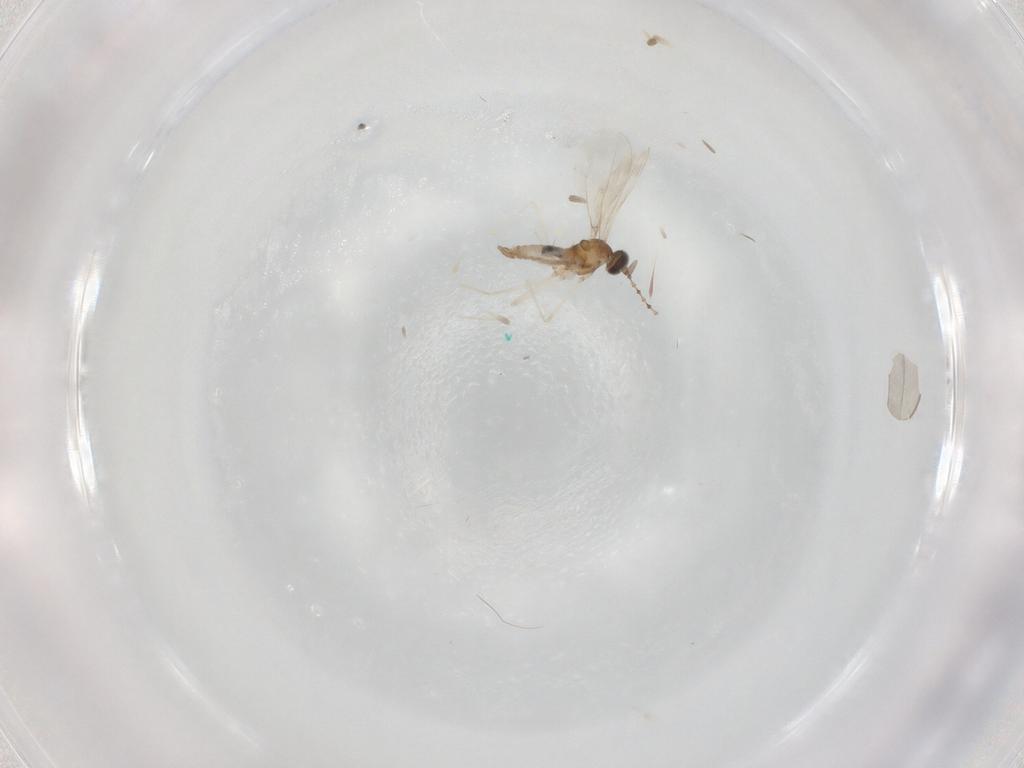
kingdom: Animalia
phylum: Arthropoda
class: Insecta
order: Diptera
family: Cecidomyiidae
